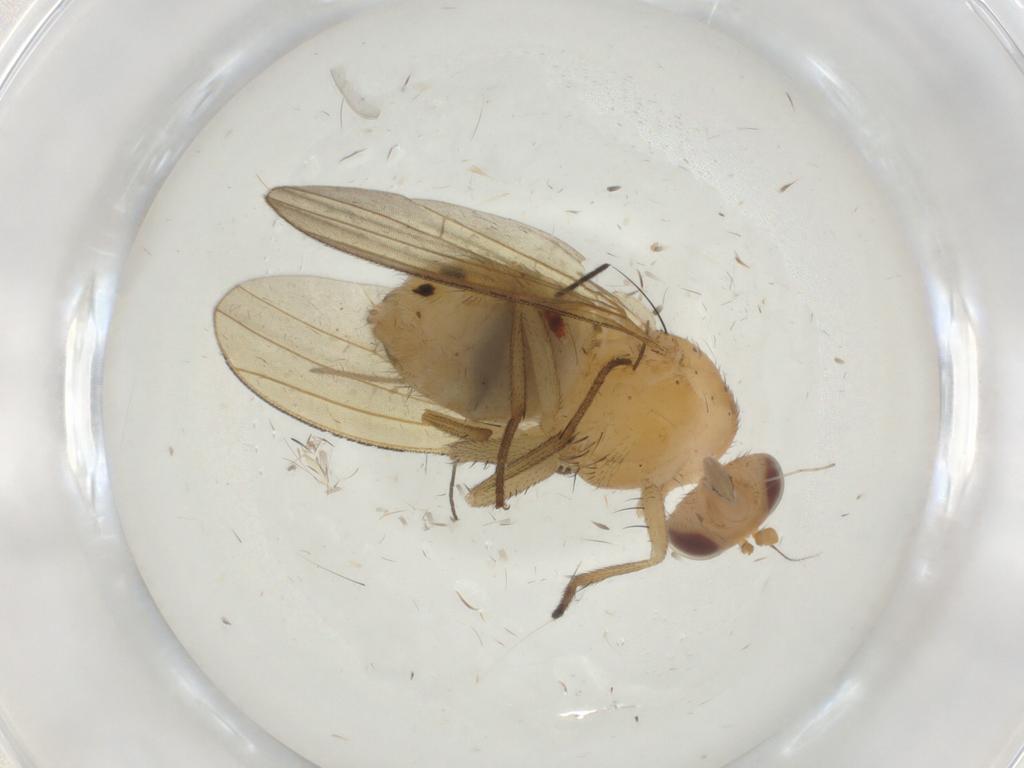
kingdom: Animalia
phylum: Arthropoda
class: Insecta
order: Diptera
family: Lauxaniidae
